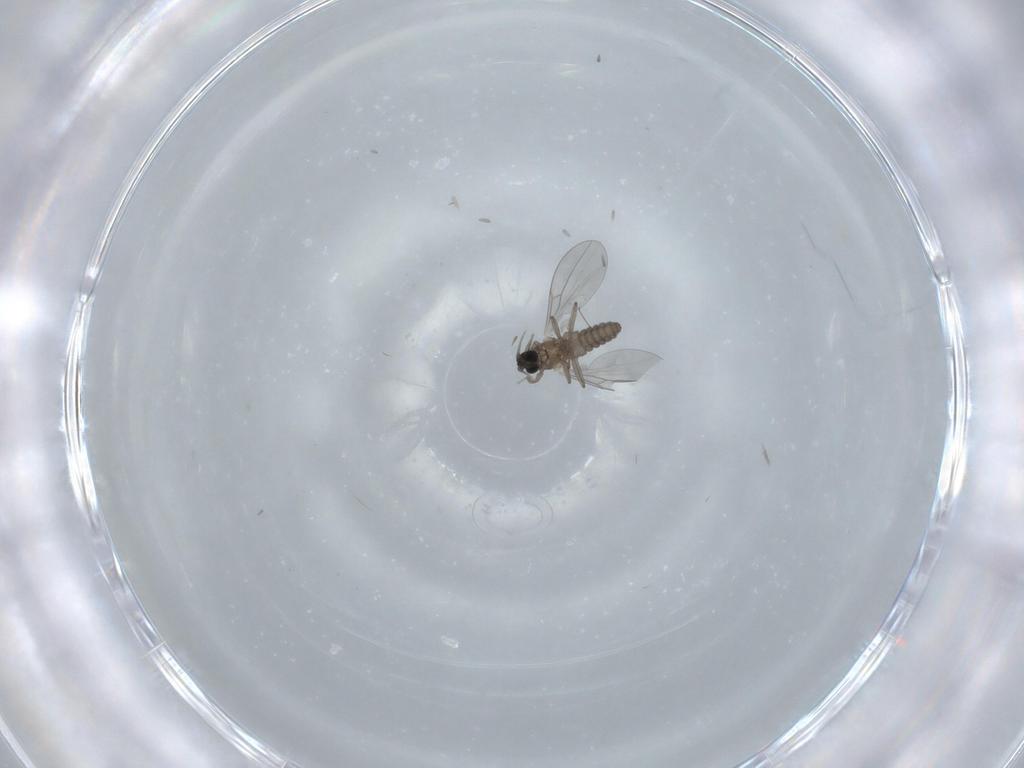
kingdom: Animalia
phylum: Arthropoda
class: Insecta
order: Diptera
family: Cecidomyiidae
